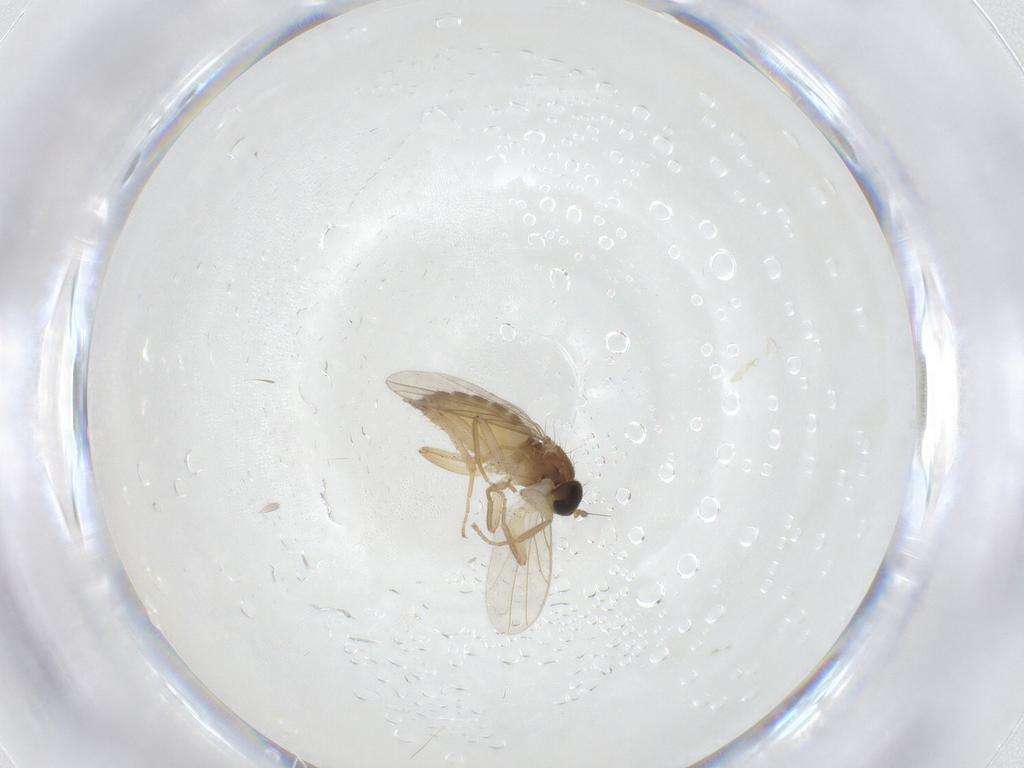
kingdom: Animalia
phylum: Arthropoda
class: Insecta
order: Diptera
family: Hybotidae
